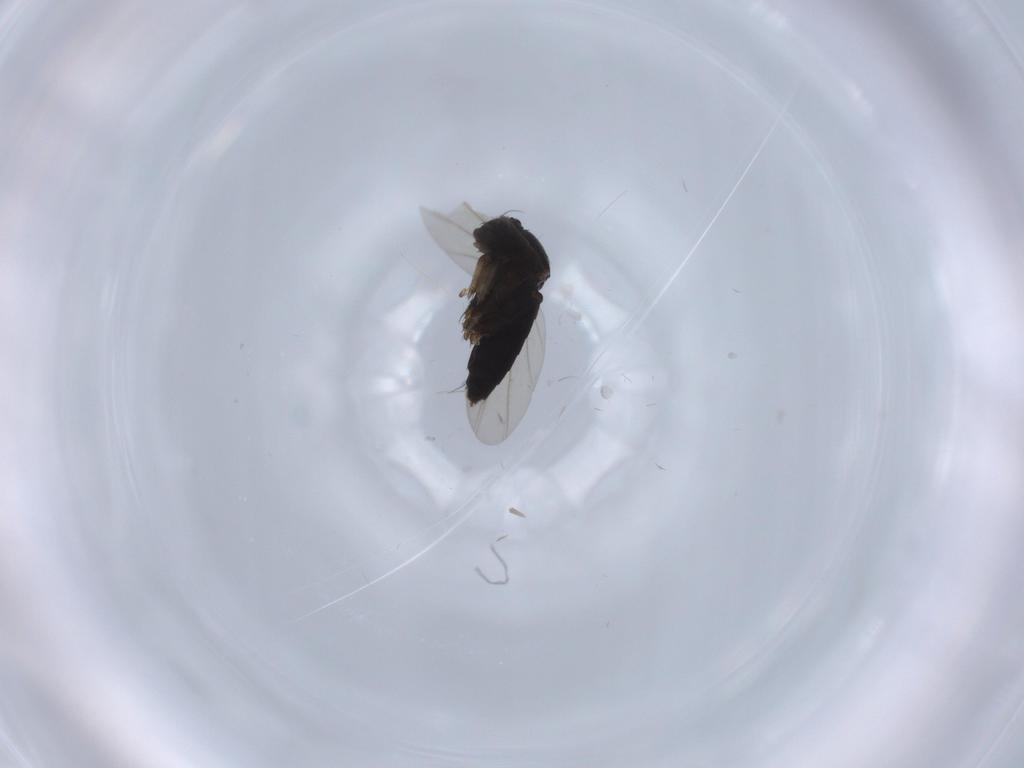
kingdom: Animalia
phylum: Arthropoda
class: Insecta
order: Diptera
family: Phoridae
